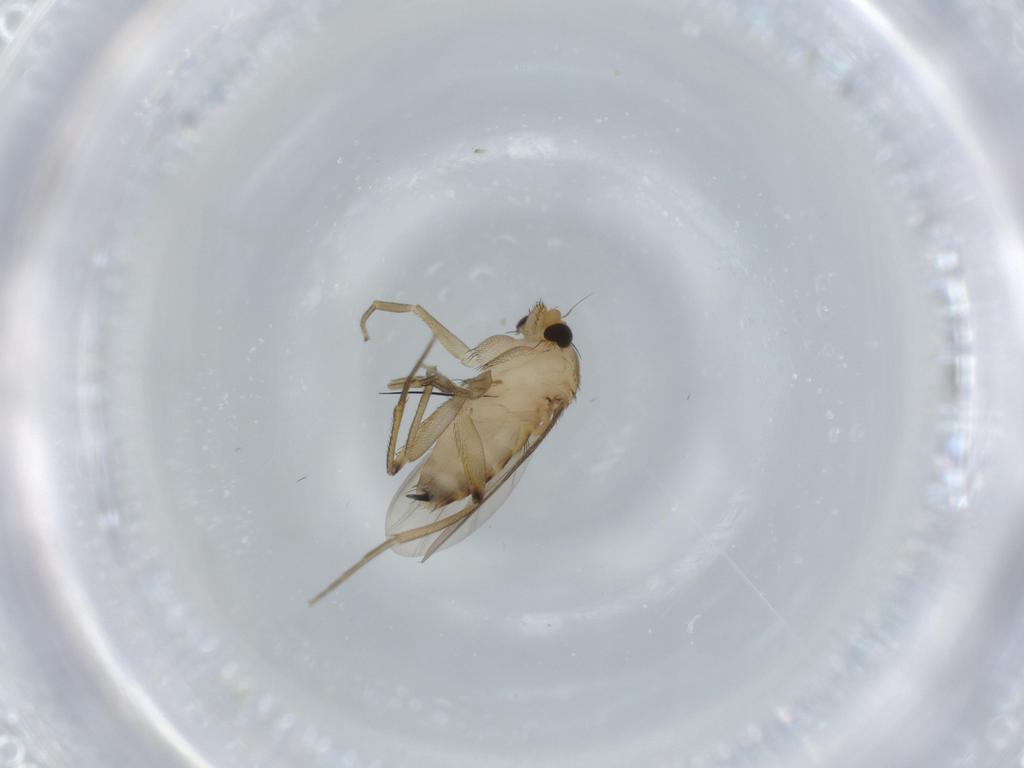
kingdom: Animalia
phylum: Arthropoda
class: Insecta
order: Diptera
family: Phoridae
